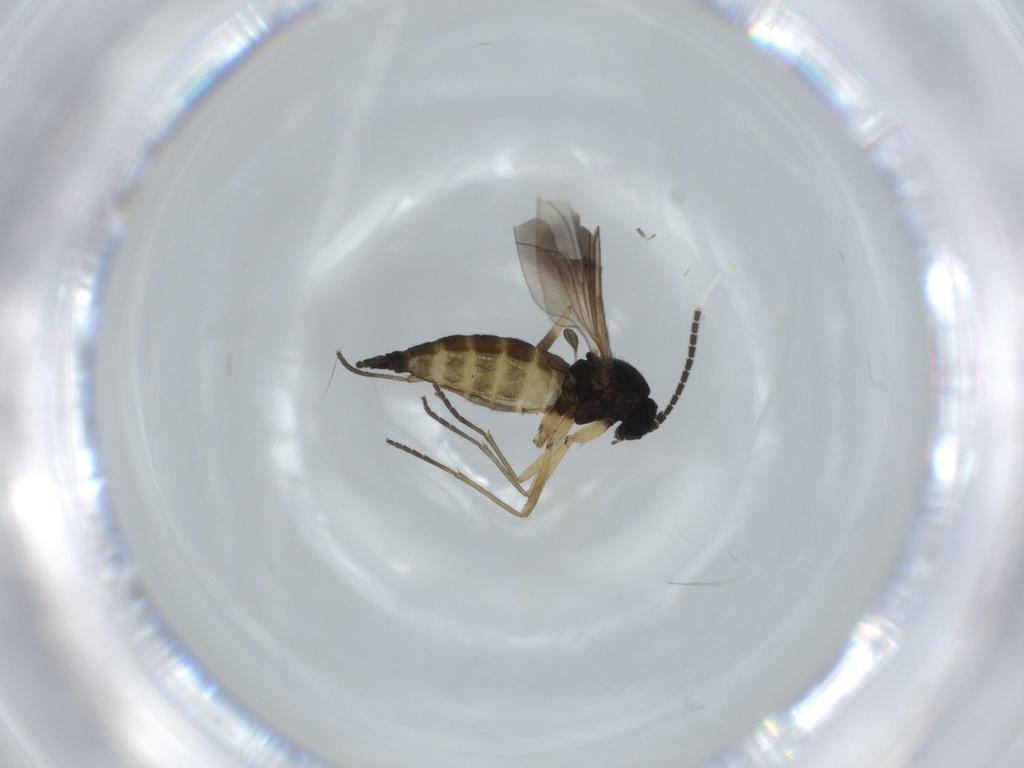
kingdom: Animalia
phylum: Arthropoda
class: Insecta
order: Diptera
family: Sciaridae
